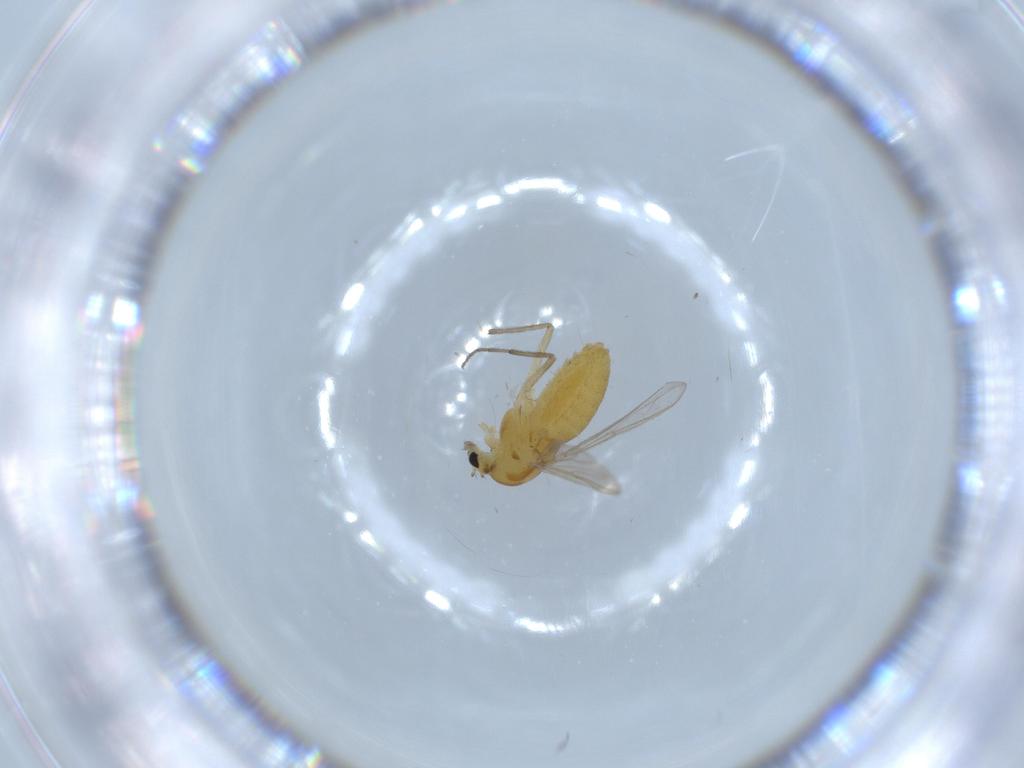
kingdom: Animalia
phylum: Arthropoda
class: Insecta
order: Diptera
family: Chironomidae
